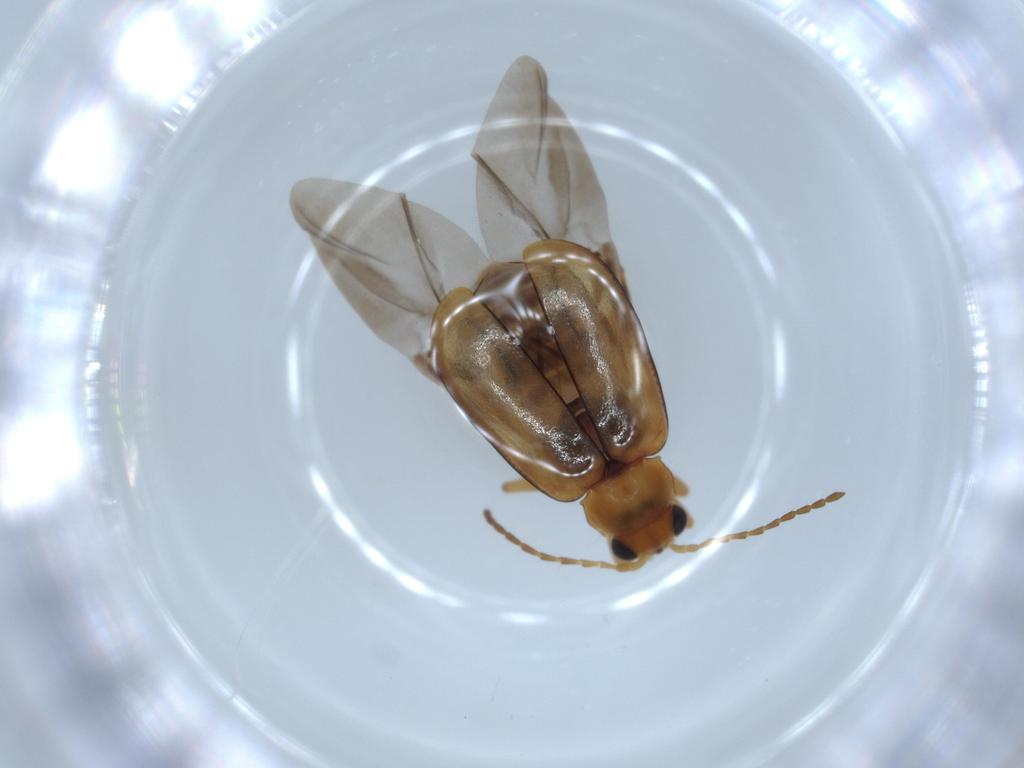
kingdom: Animalia
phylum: Arthropoda
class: Insecta
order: Coleoptera
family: Chrysomelidae
